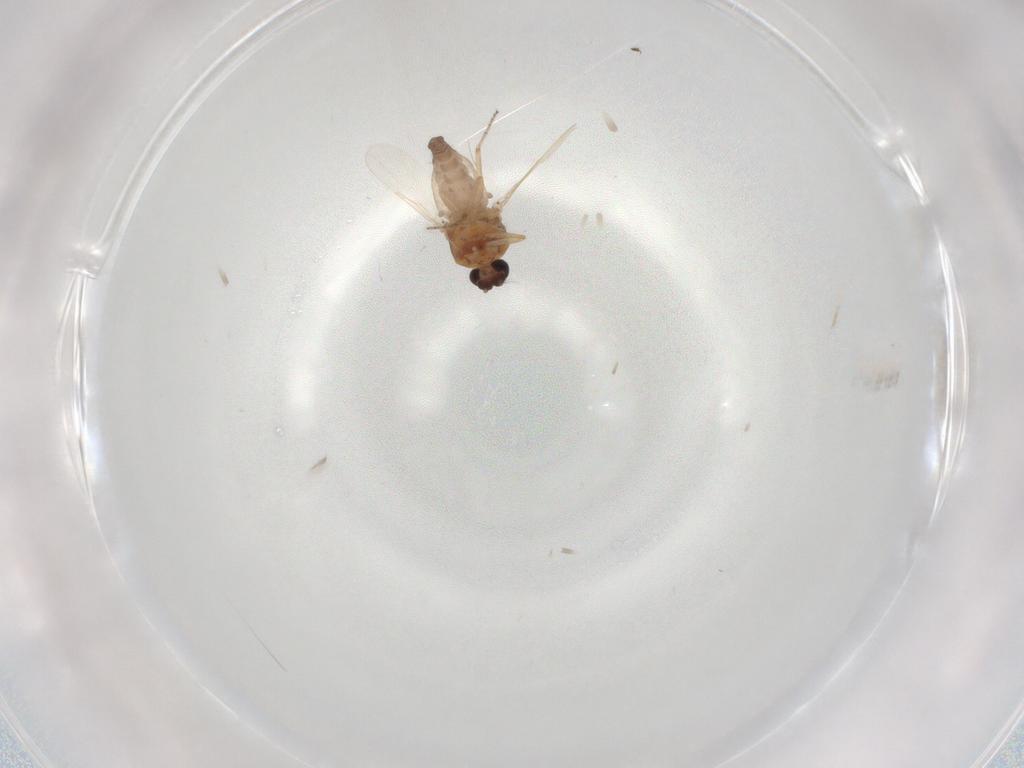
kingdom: Animalia
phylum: Arthropoda
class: Insecta
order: Diptera
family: Ceratopogonidae
